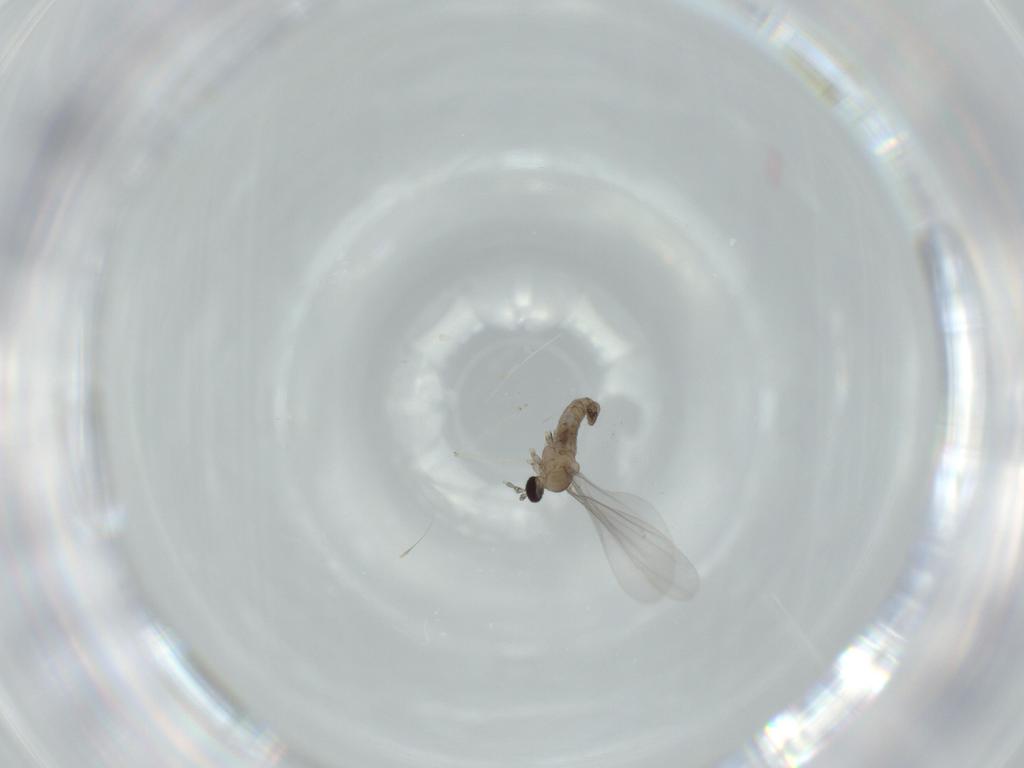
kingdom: Animalia
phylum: Arthropoda
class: Insecta
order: Diptera
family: Cecidomyiidae
